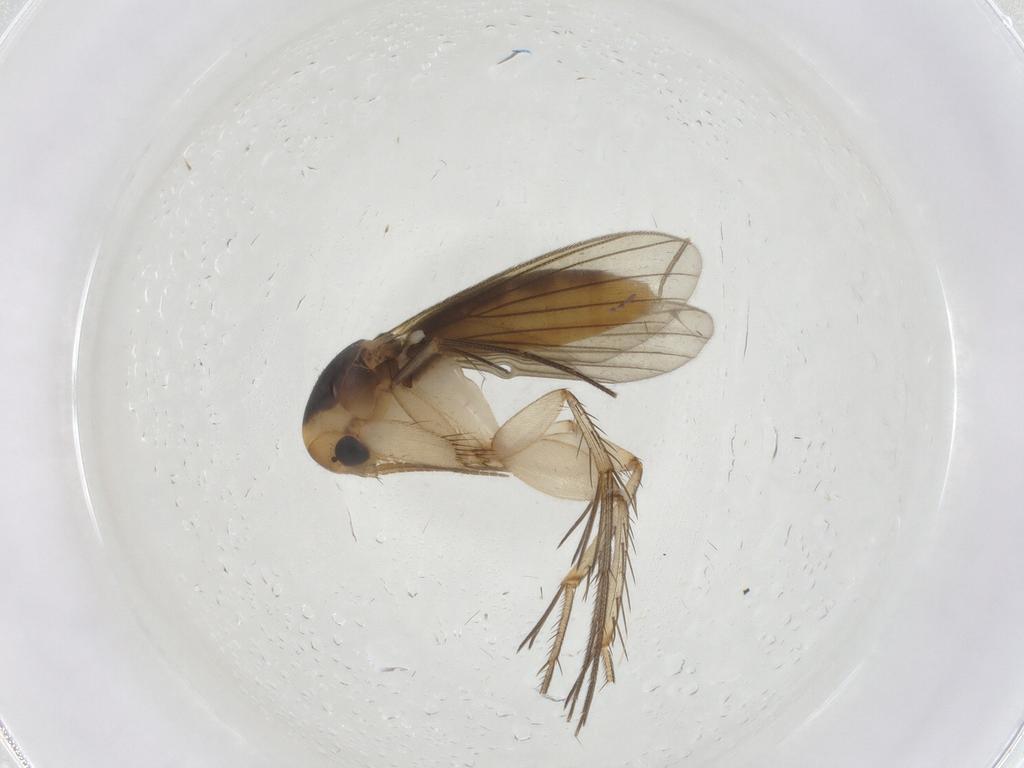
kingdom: Animalia
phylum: Arthropoda
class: Insecta
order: Diptera
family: Mycetophilidae
